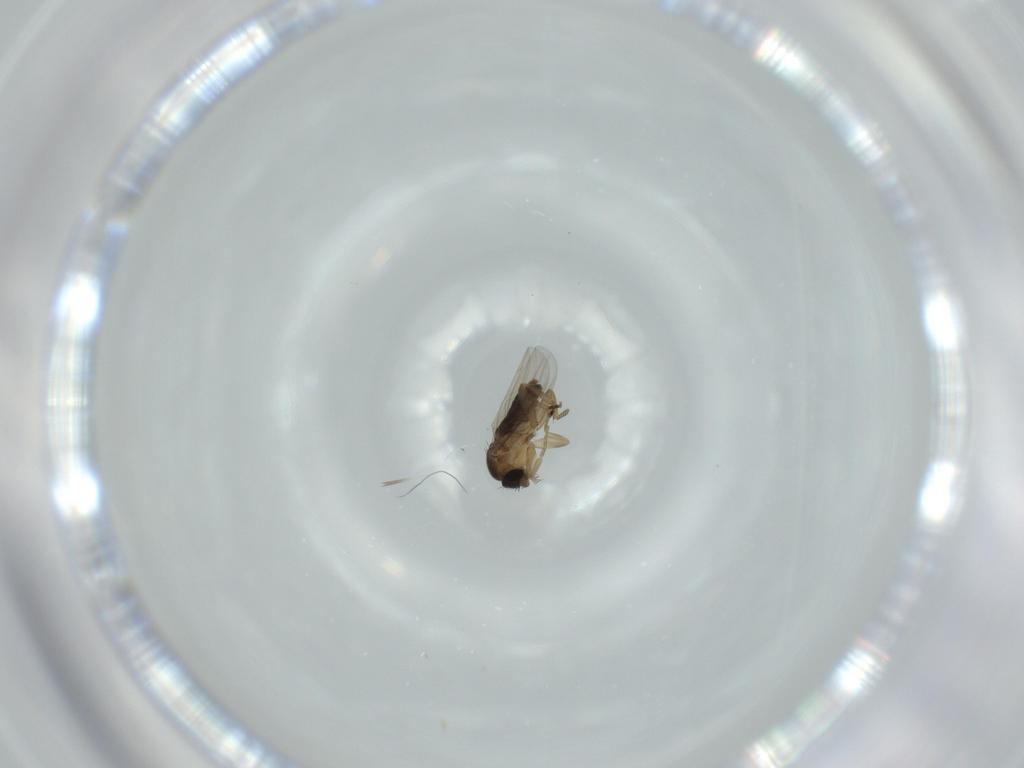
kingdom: Animalia
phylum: Arthropoda
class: Insecta
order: Diptera
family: Phoridae
